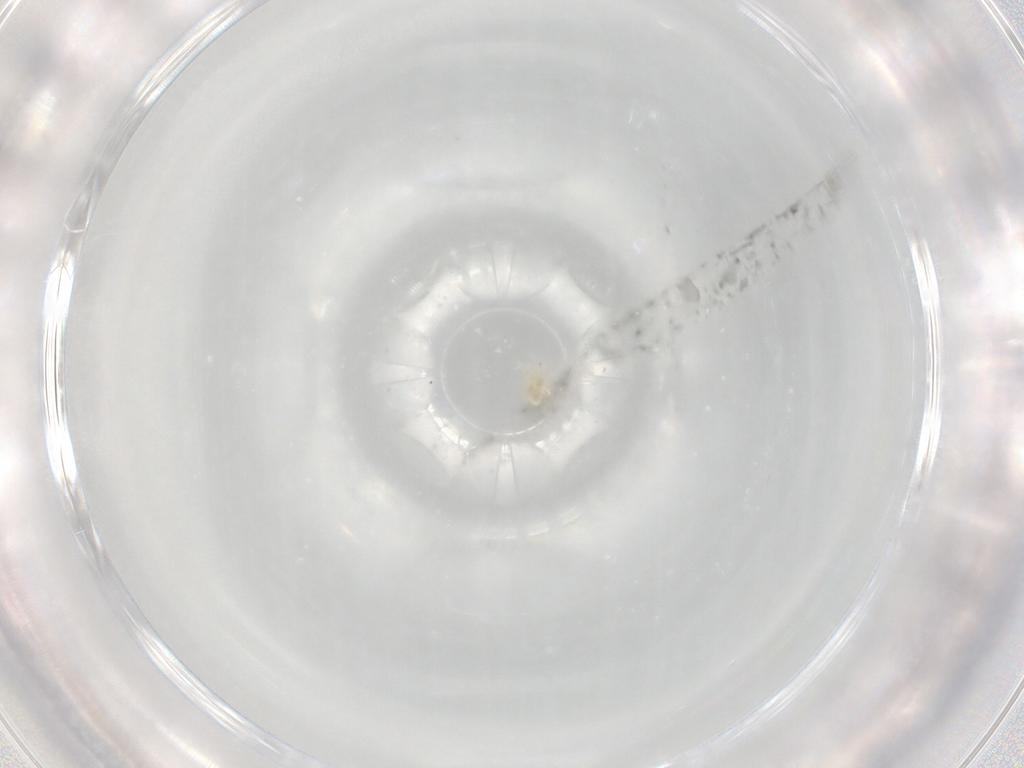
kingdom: Animalia
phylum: Arthropoda
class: Arachnida
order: Trombidiformes
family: Eupodidae
